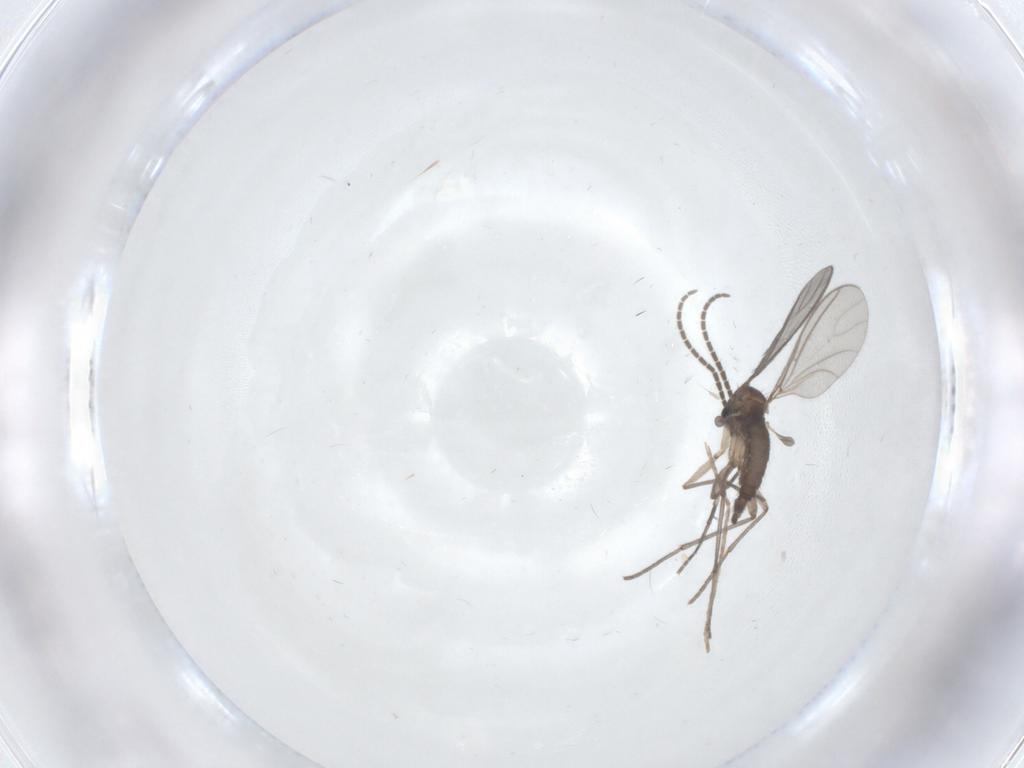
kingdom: Animalia
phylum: Arthropoda
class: Insecta
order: Diptera
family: Sciaridae
